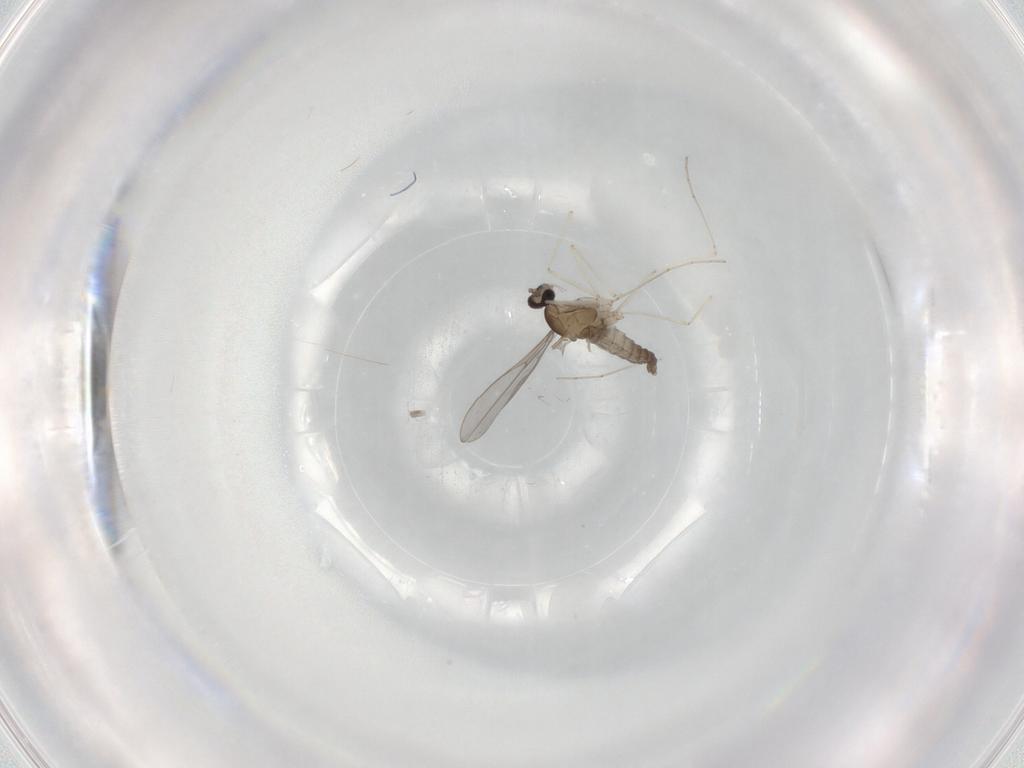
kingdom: Animalia
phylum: Arthropoda
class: Insecta
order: Diptera
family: Cecidomyiidae
